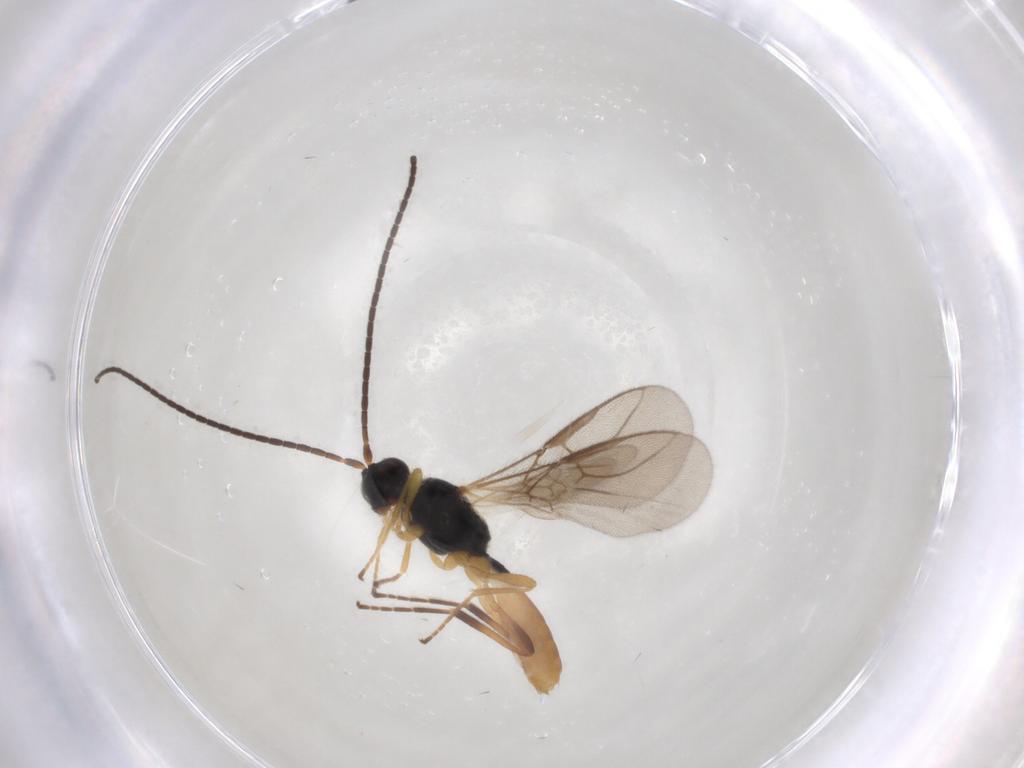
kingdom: Animalia
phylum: Arthropoda
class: Insecta
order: Hymenoptera
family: Braconidae
